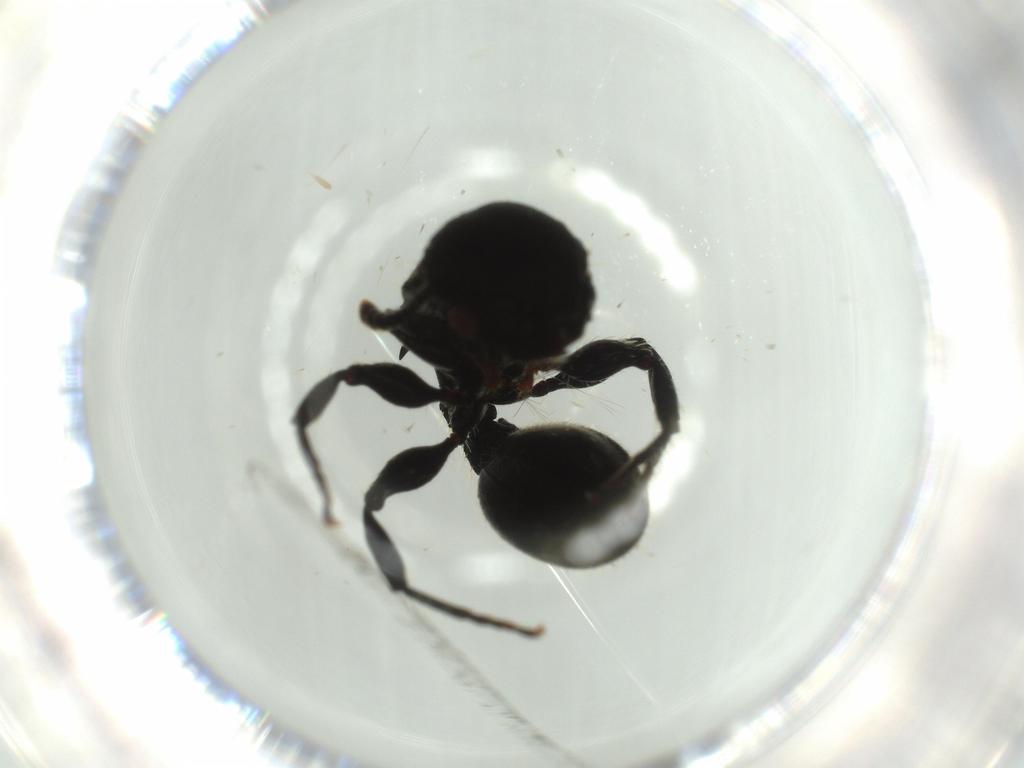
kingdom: Animalia
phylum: Arthropoda
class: Insecta
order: Hymenoptera
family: Formicidae
